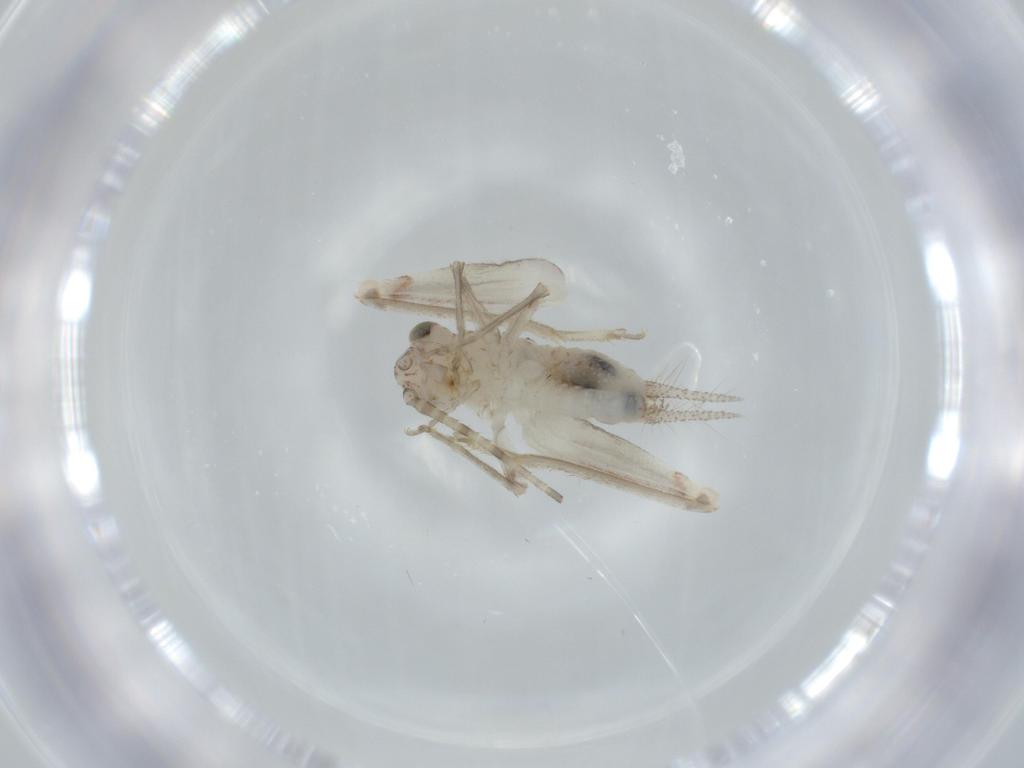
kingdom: Animalia
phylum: Arthropoda
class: Insecta
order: Orthoptera
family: Trigonidiidae
